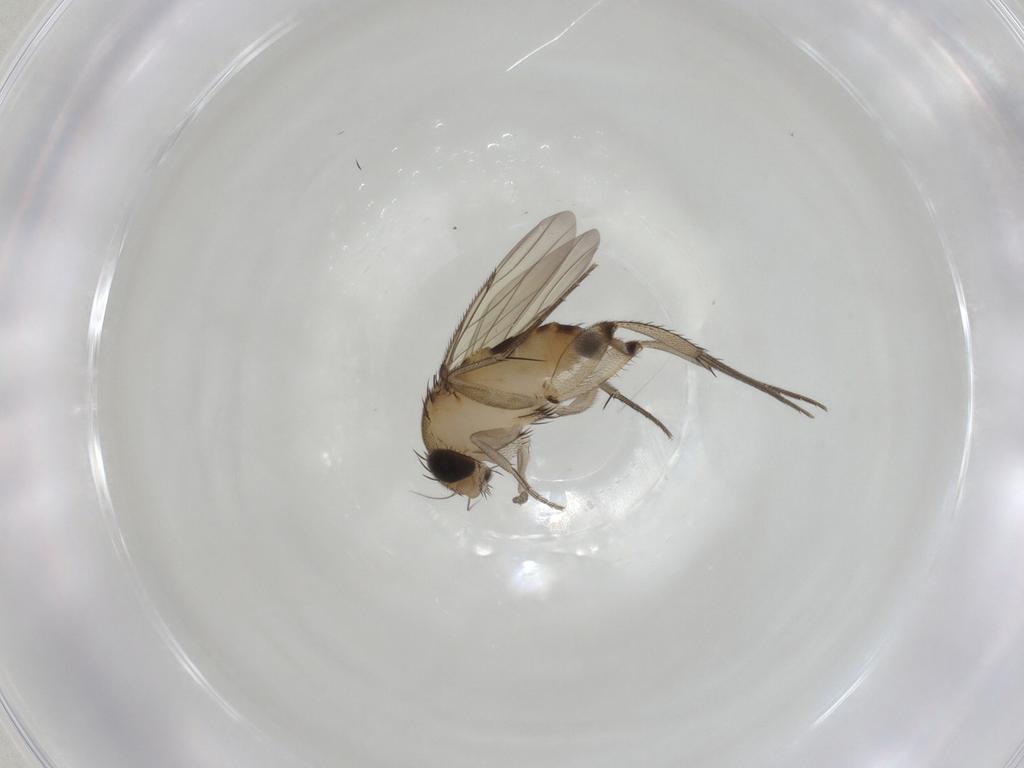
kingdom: Animalia
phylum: Arthropoda
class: Insecta
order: Diptera
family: Phoridae
